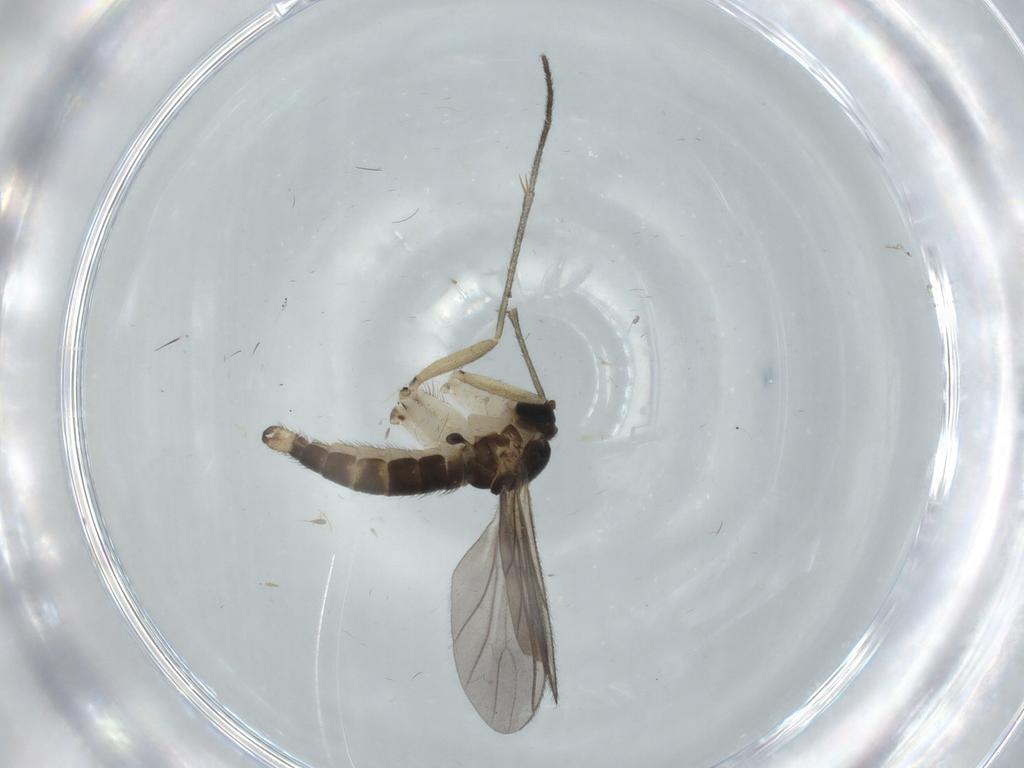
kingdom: Animalia
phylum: Arthropoda
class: Insecta
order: Diptera
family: Sciaridae
